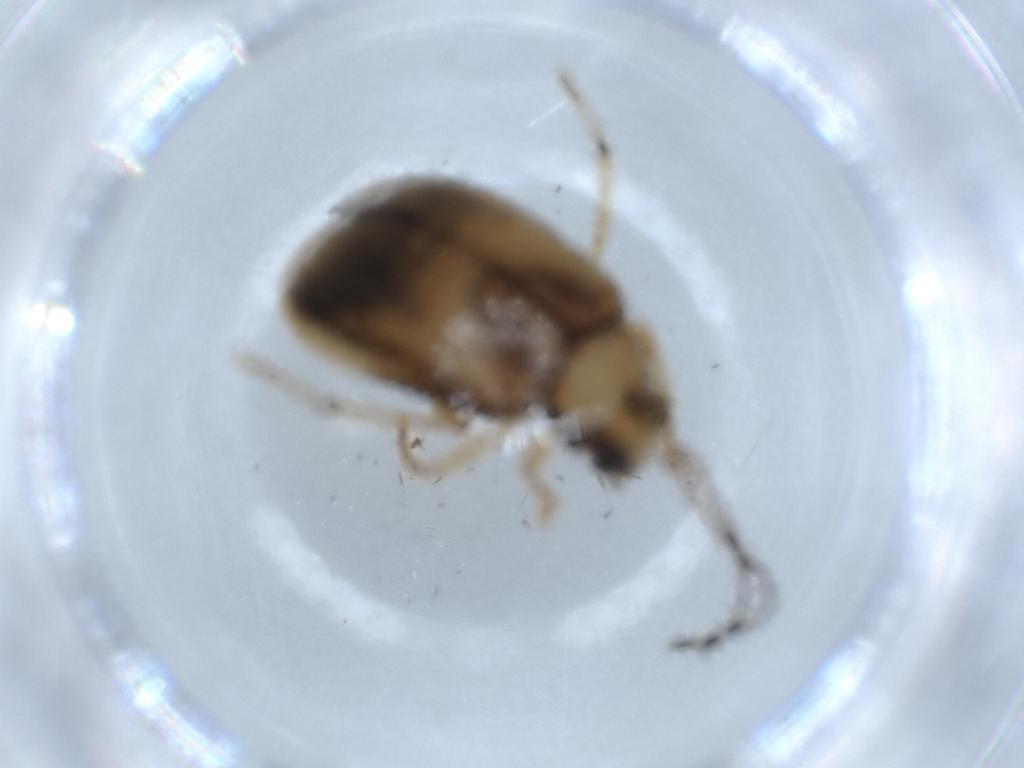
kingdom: Animalia
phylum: Arthropoda
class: Insecta
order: Coleoptera
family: Chrysomelidae
